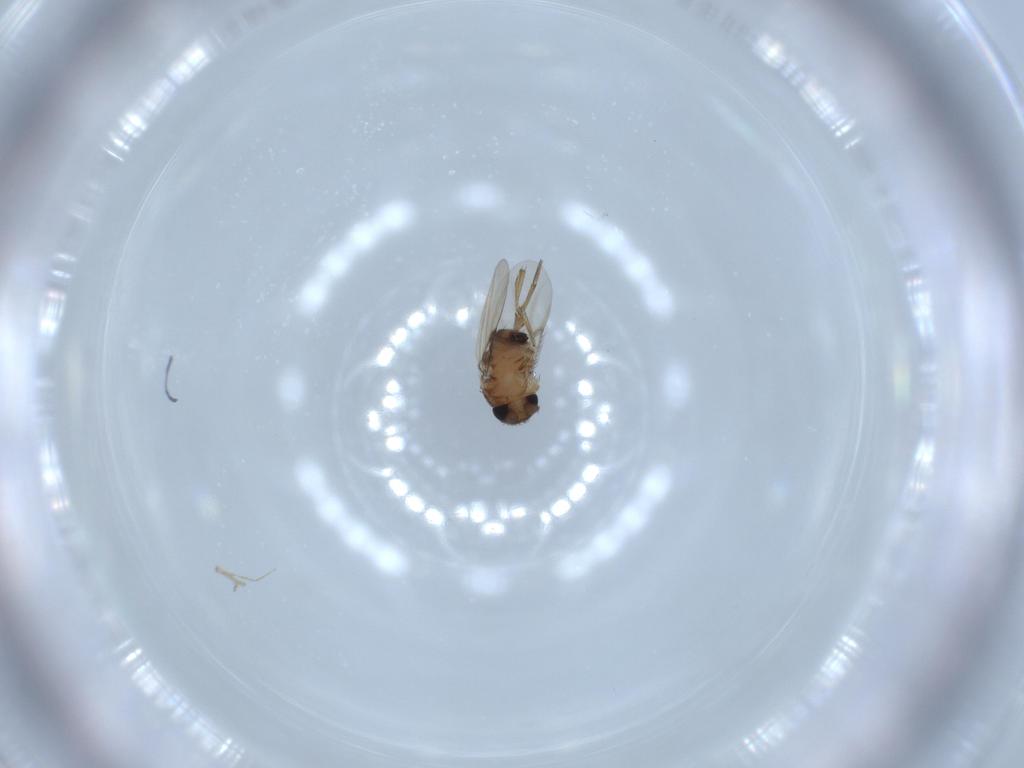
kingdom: Animalia
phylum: Arthropoda
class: Insecta
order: Diptera
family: Phoridae
